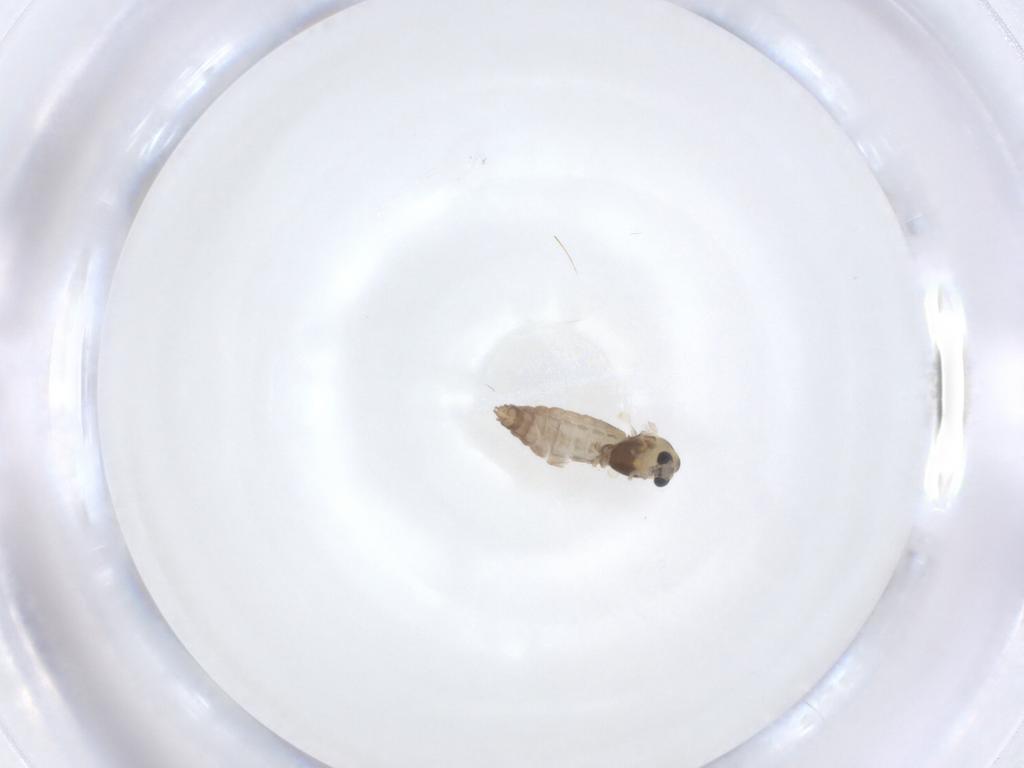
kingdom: Animalia
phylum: Arthropoda
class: Insecta
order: Diptera
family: Chironomidae
